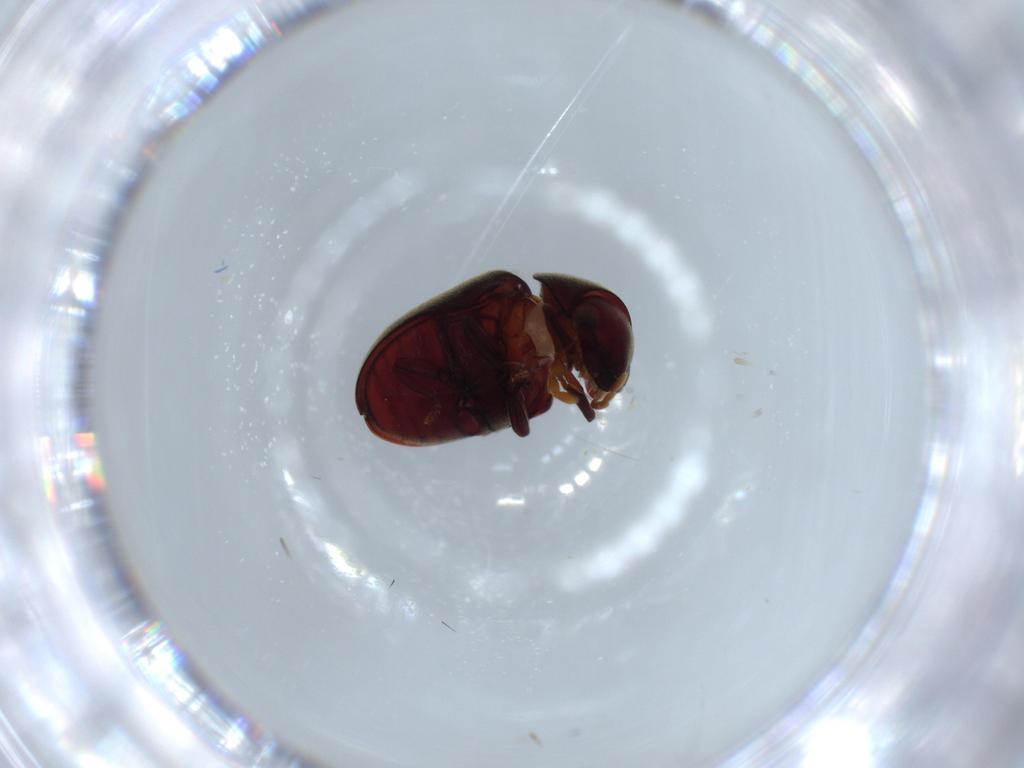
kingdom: Animalia
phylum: Arthropoda
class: Insecta
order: Coleoptera
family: Ptinidae
